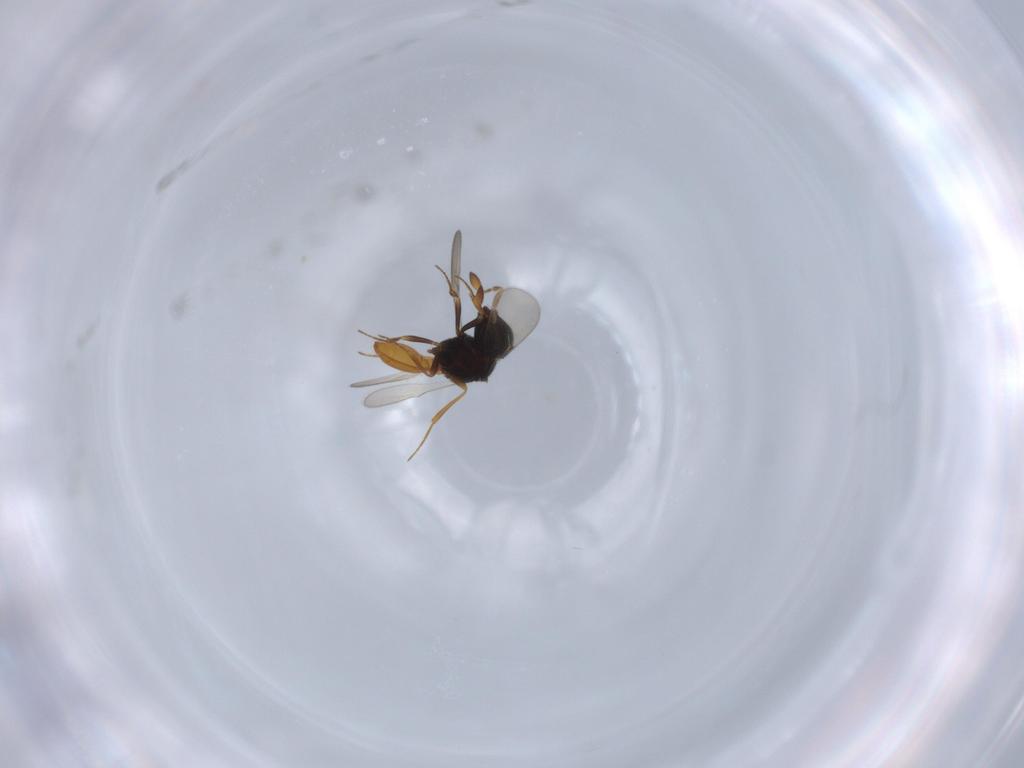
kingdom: Animalia
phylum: Arthropoda
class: Insecta
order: Hymenoptera
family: Scelionidae
